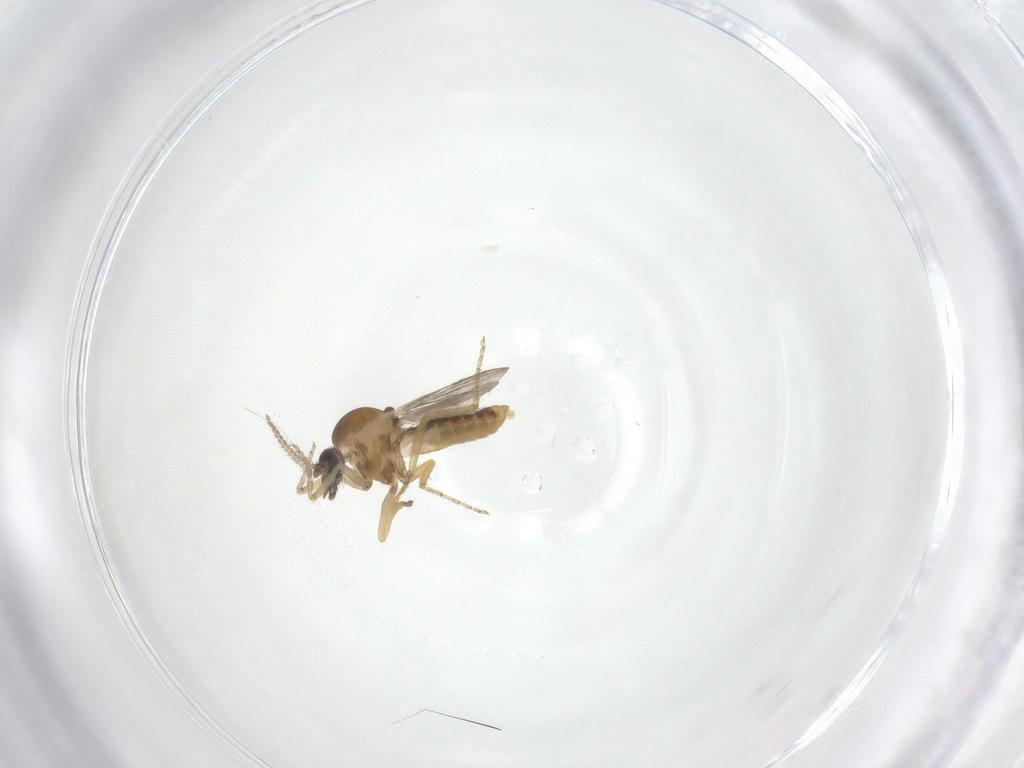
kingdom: Animalia
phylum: Arthropoda
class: Insecta
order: Diptera
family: Ceratopogonidae
